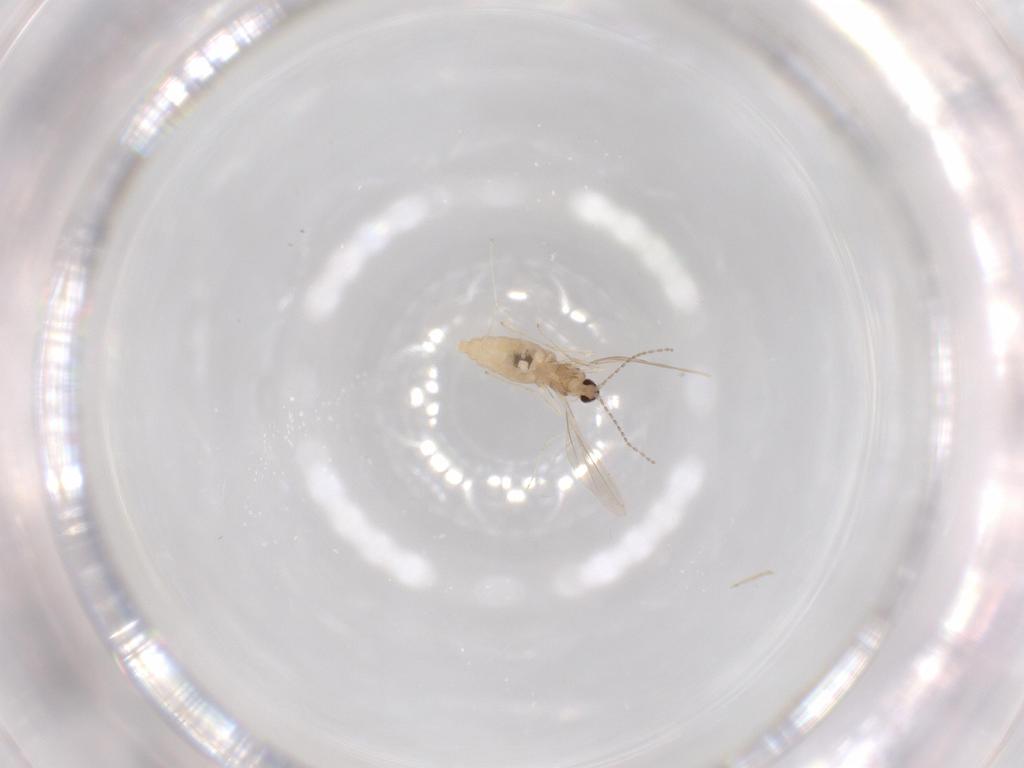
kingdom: Animalia
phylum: Arthropoda
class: Insecta
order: Diptera
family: Cecidomyiidae
